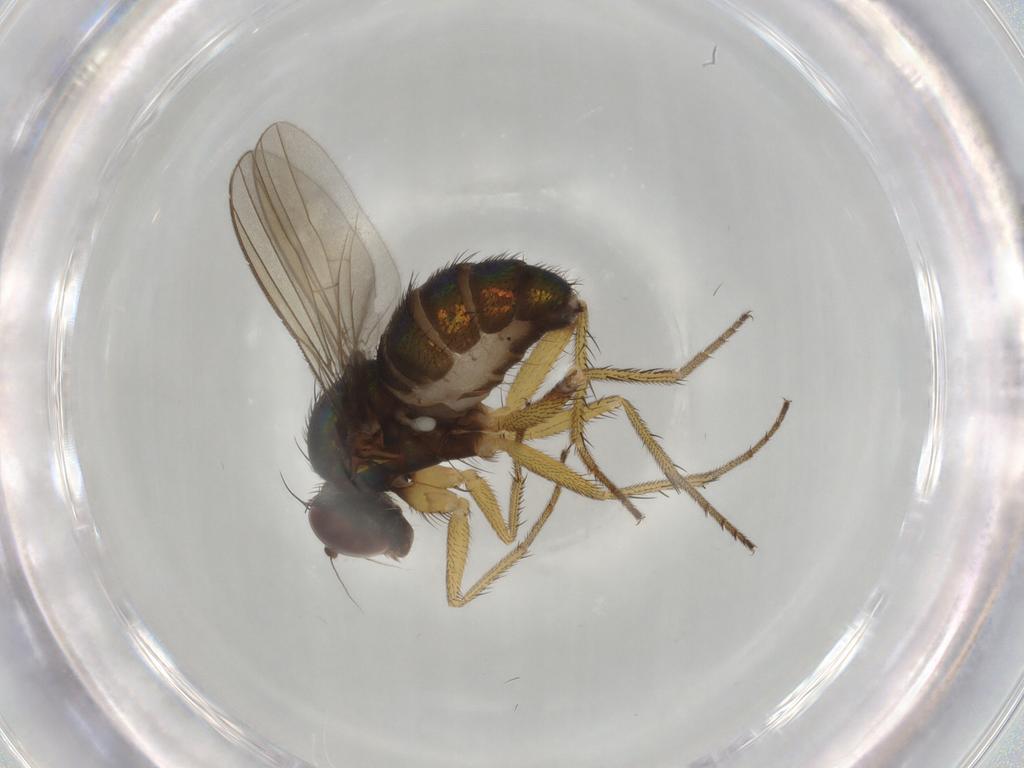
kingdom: Animalia
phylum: Arthropoda
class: Insecta
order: Diptera
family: Dolichopodidae
